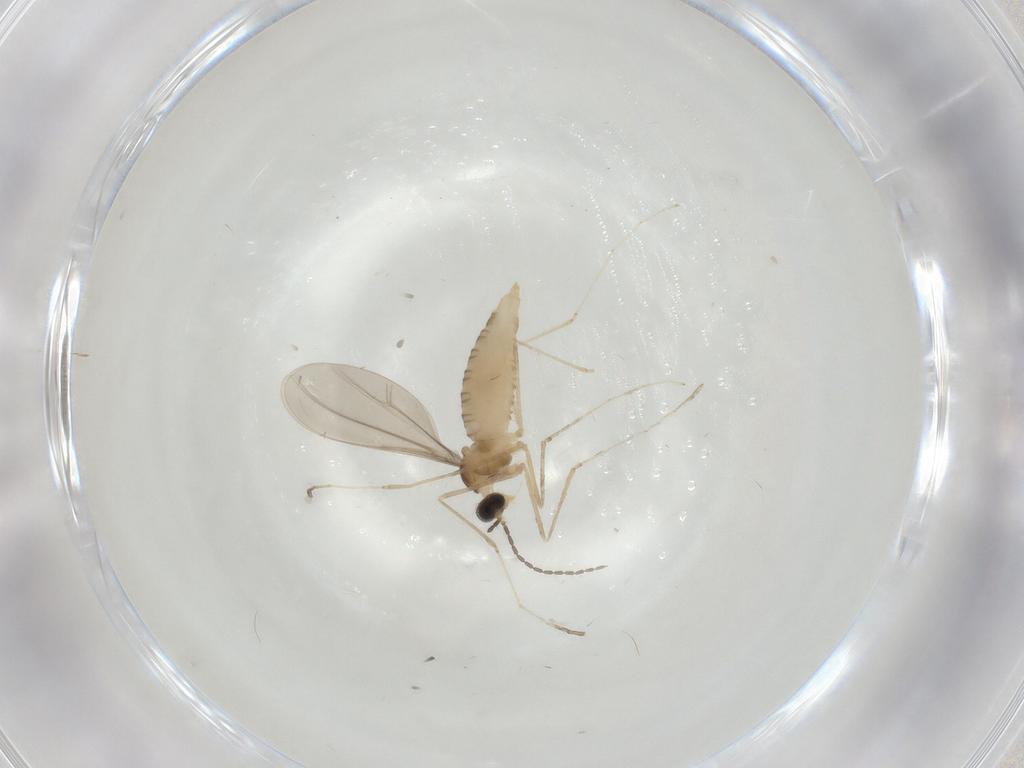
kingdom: Animalia
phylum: Arthropoda
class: Insecta
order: Diptera
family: Cecidomyiidae
